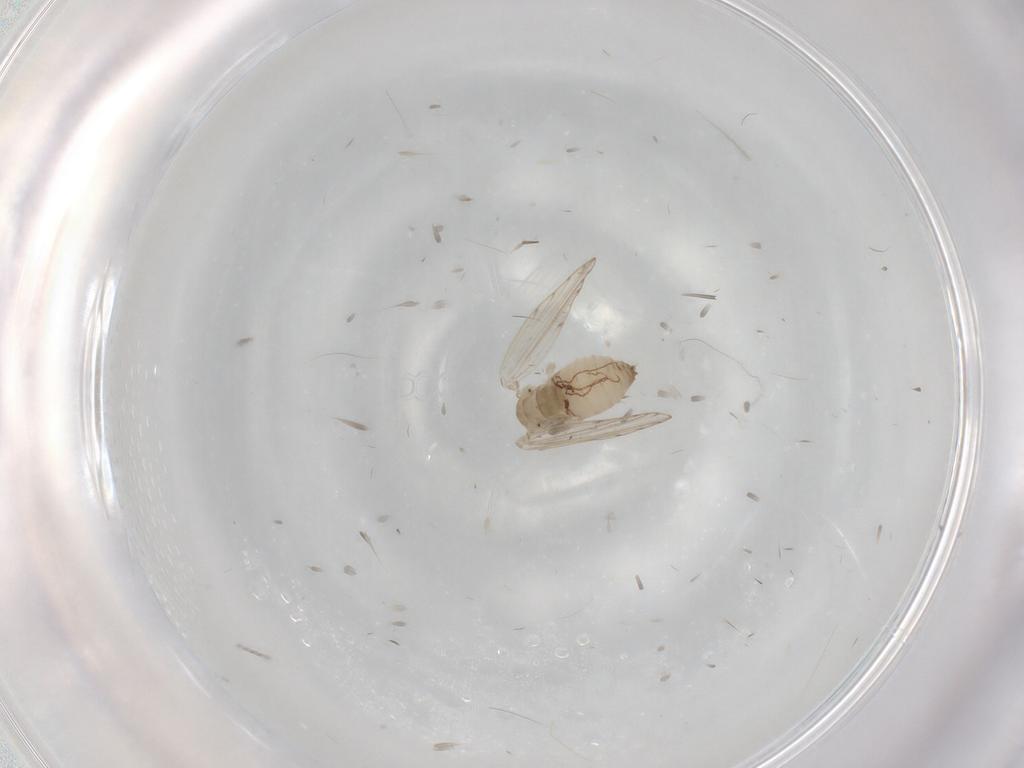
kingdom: Animalia
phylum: Arthropoda
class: Insecta
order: Diptera
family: Psychodidae
